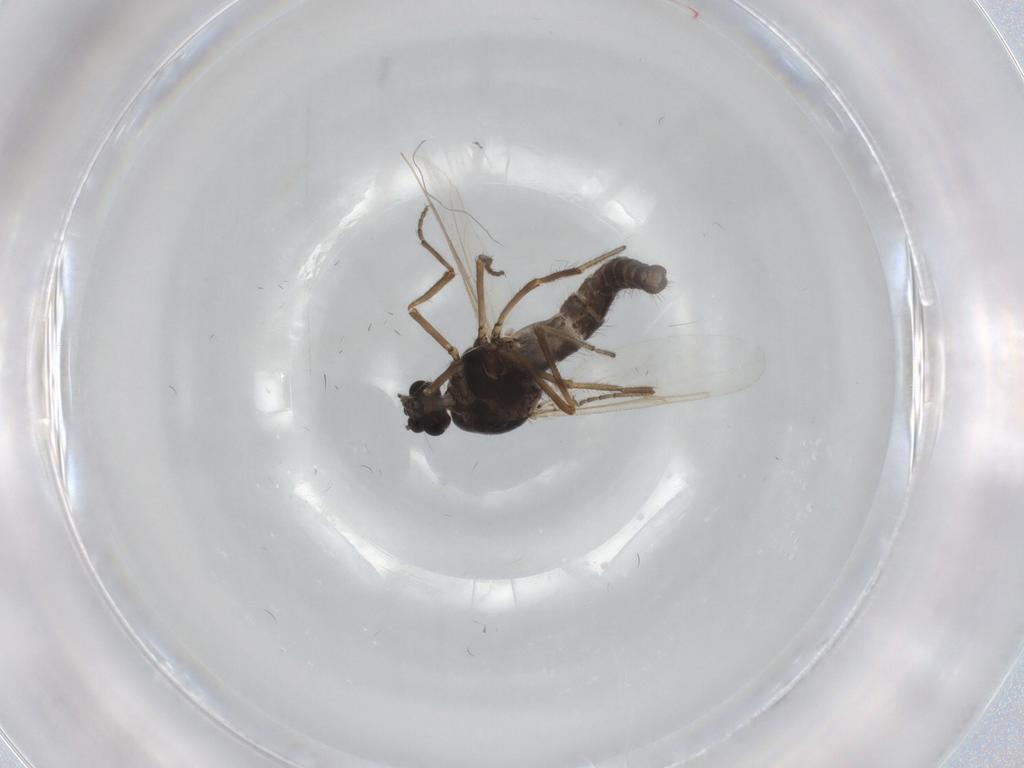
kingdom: Animalia
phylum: Arthropoda
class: Insecta
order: Diptera
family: Ceratopogonidae
